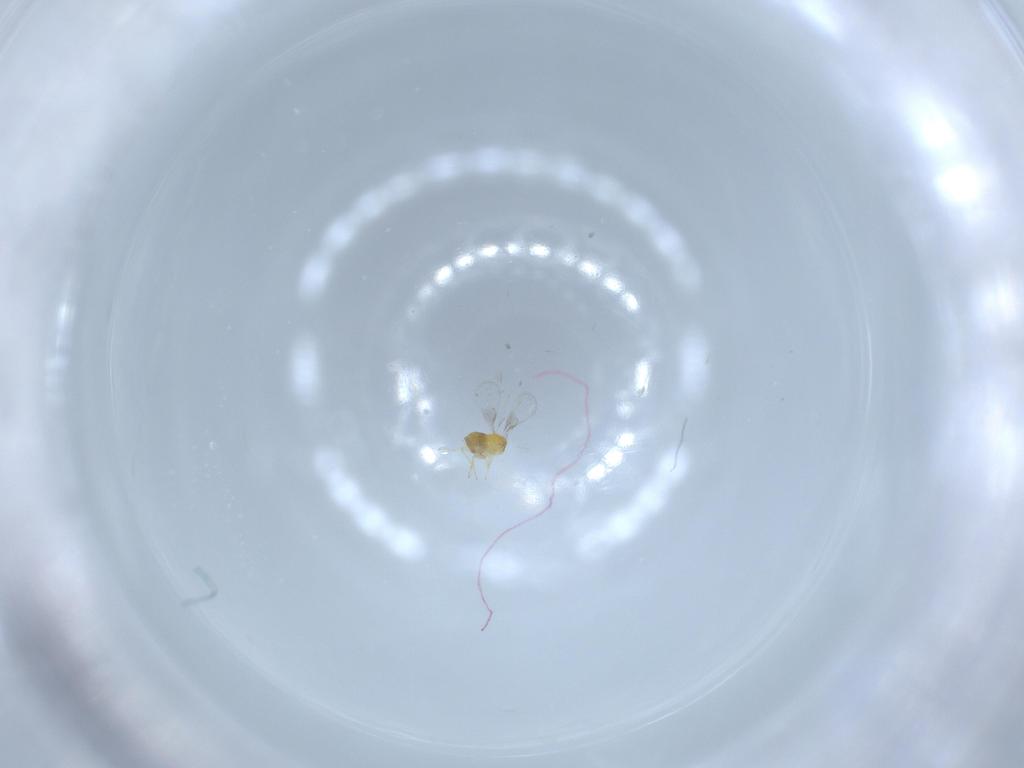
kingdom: Animalia
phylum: Arthropoda
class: Insecta
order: Hymenoptera
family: Trichogrammatidae
